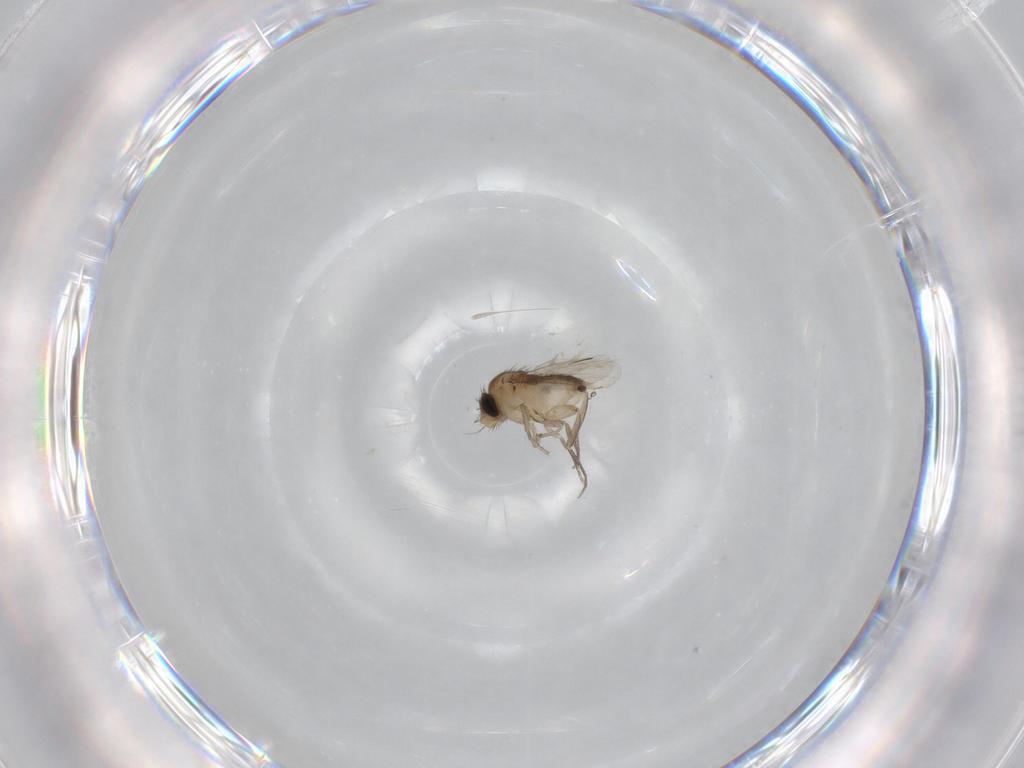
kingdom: Animalia
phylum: Arthropoda
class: Insecta
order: Diptera
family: Phoridae
